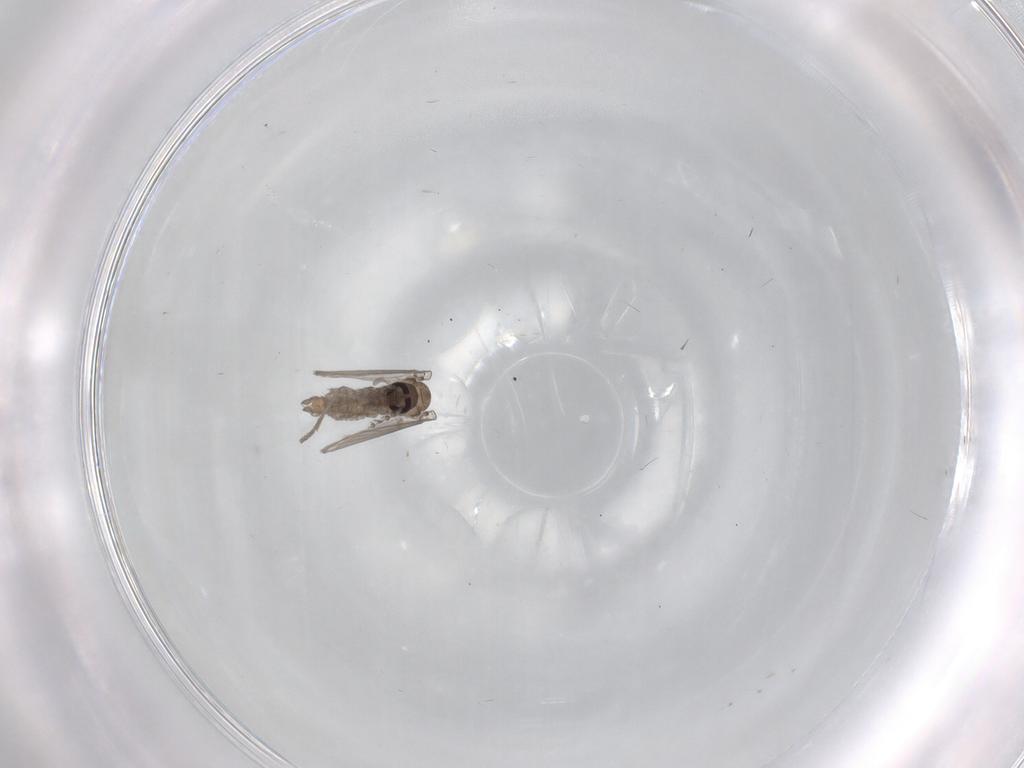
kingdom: Animalia
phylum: Arthropoda
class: Insecta
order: Diptera
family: Psychodidae
